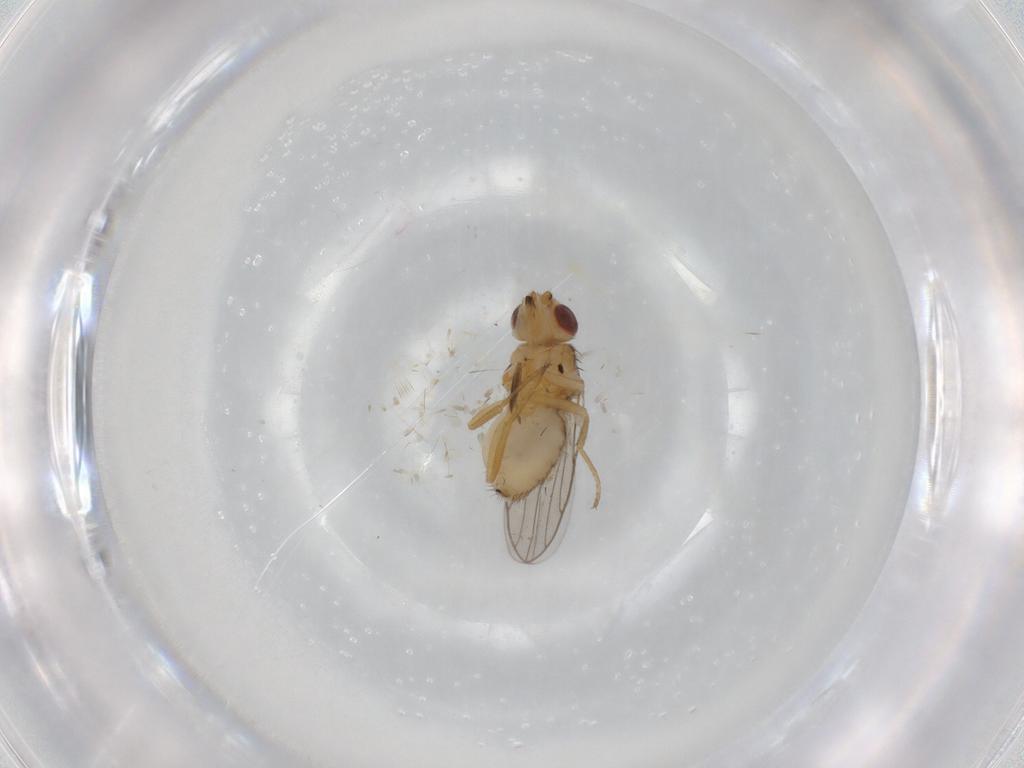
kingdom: Animalia
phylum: Arthropoda
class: Insecta
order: Diptera
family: Chloropidae
